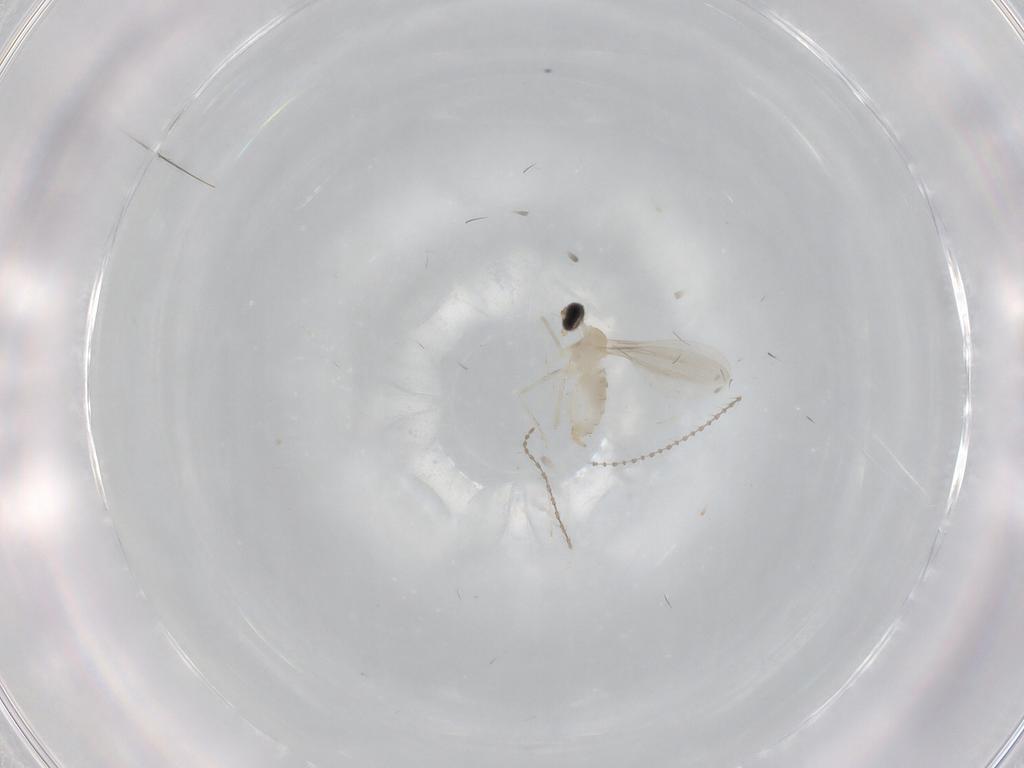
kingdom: Animalia
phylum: Arthropoda
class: Insecta
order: Diptera
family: Cecidomyiidae
